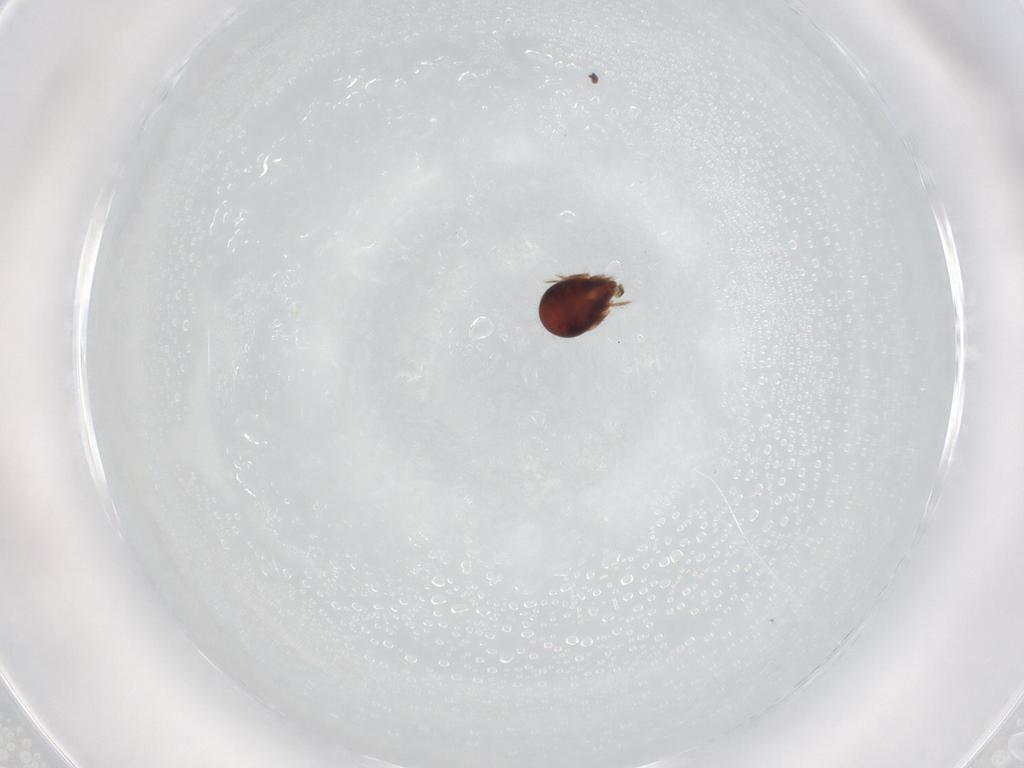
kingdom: Animalia
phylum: Arthropoda
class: Arachnida
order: Sarcoptiformes
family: Humerobatidae
